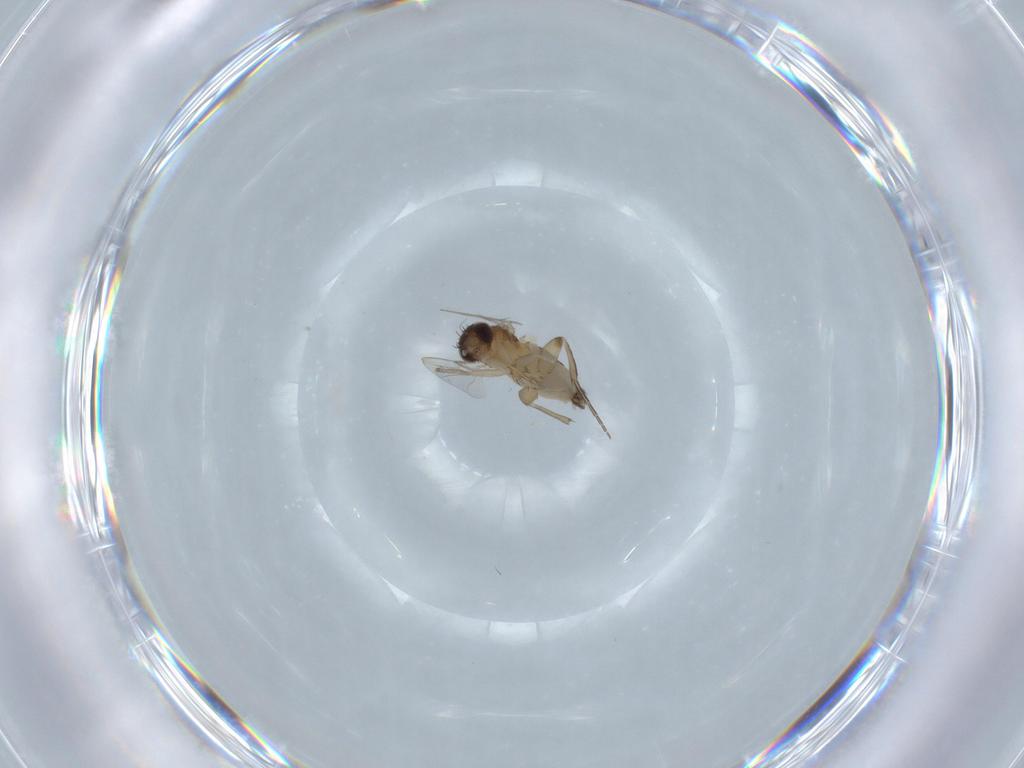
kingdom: Animalia
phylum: Arthropoda
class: Insecta
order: Diptera
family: Phoridae
